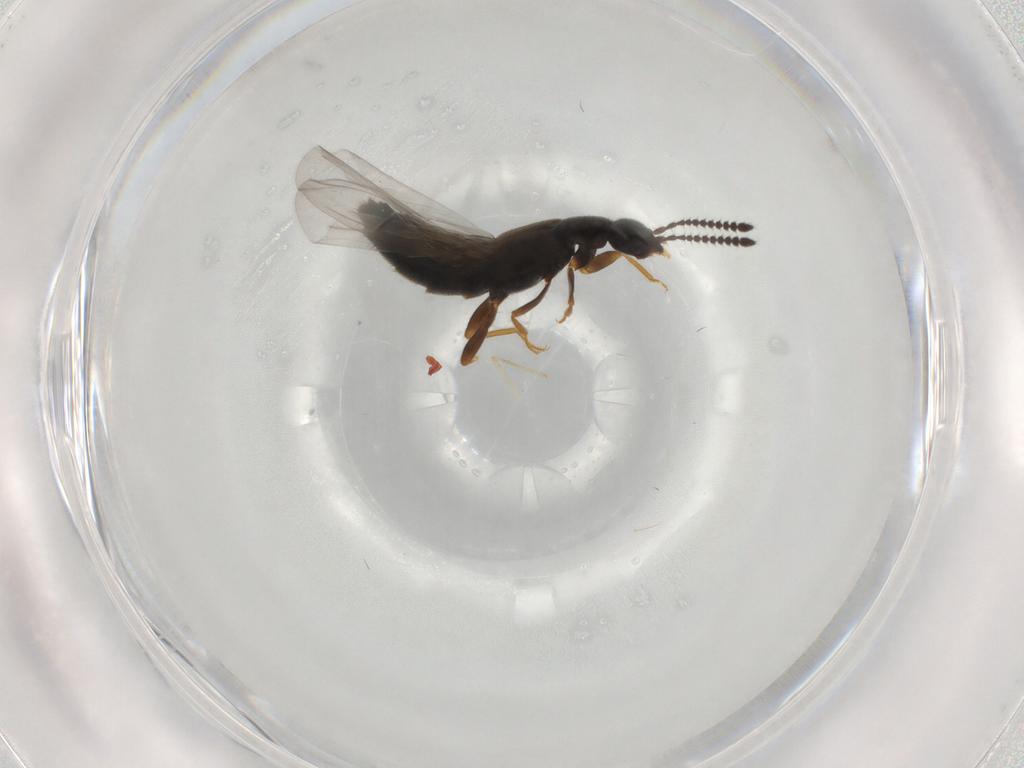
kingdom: Animalia
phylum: Arthropoda
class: Insecta
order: Coleoptera
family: Staphylinidae
